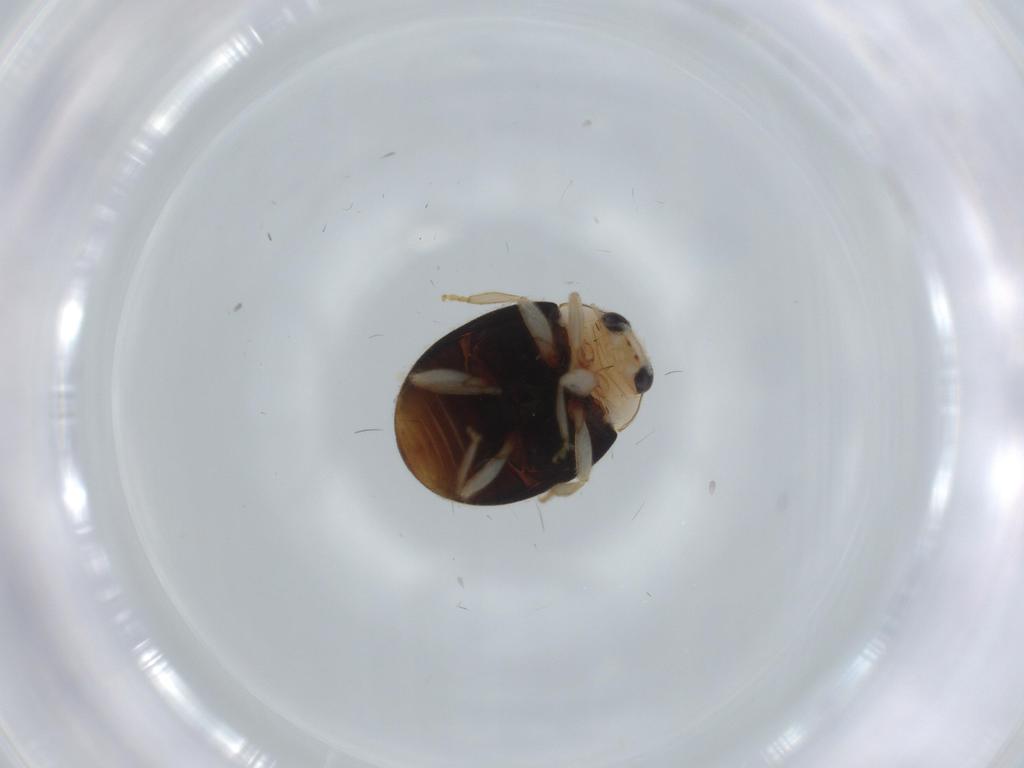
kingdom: Animalia
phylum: Arthropoda
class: Insecta
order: Coleoptera
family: Coccinellidae
